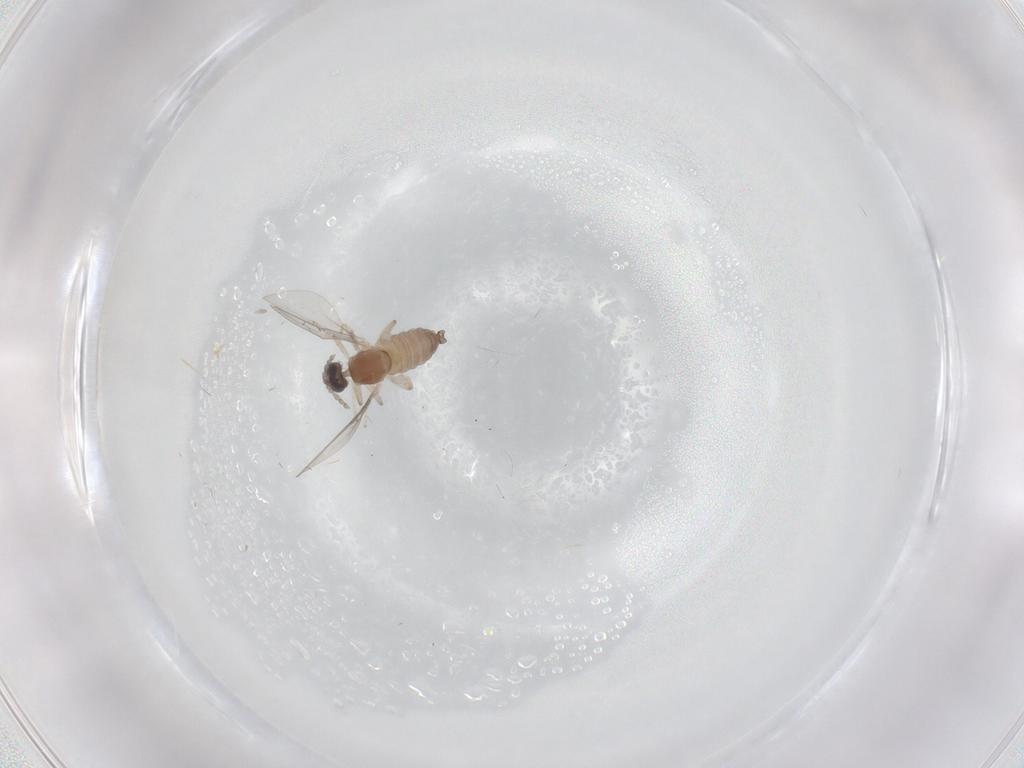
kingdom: Animalia
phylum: Arthropoda
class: Insecta
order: Diptera
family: Cecidomyiidae
